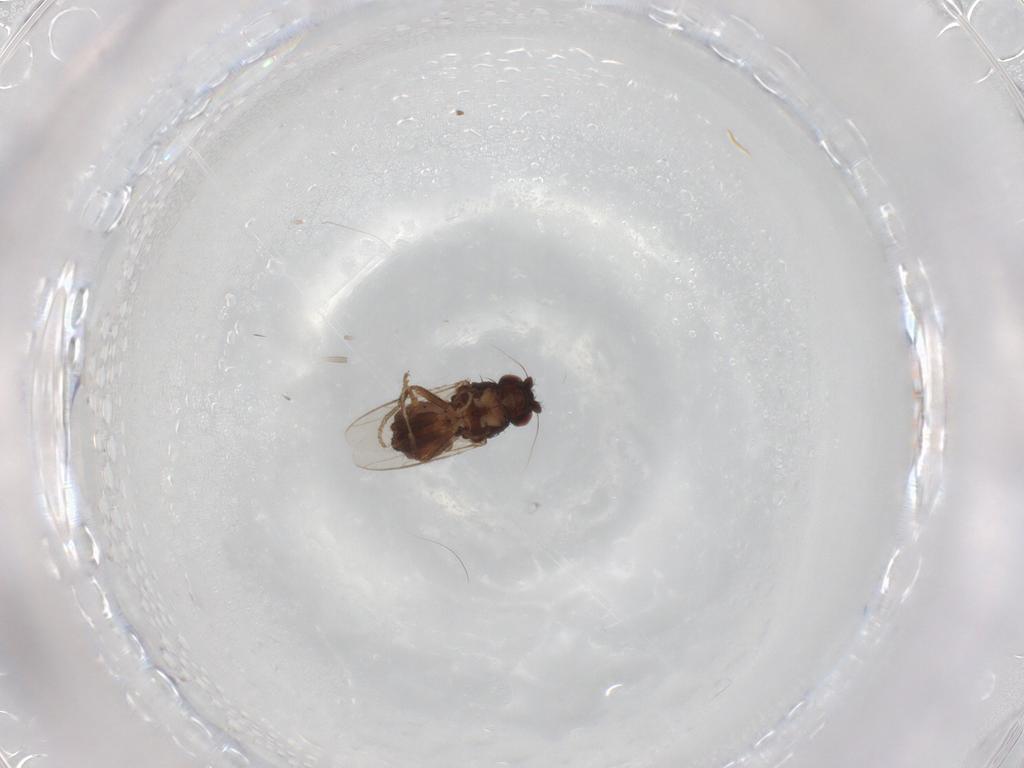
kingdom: Animalia
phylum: Arthropoda
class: Insecta
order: Diptera
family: Sphaeroceridae
